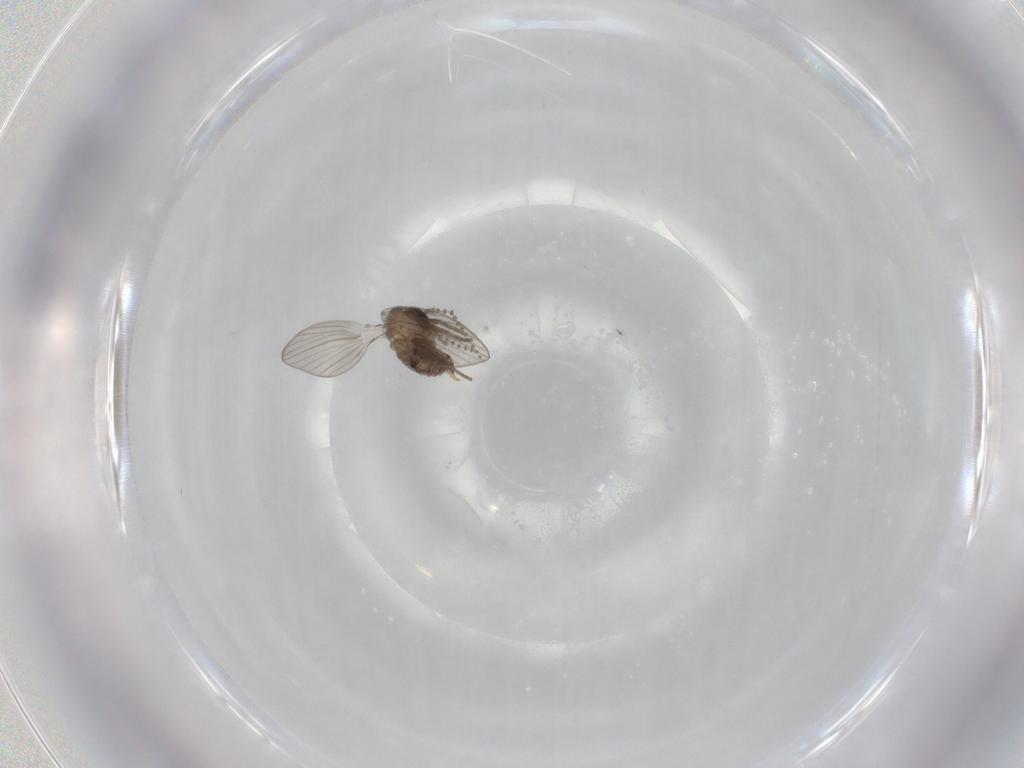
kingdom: Animalia
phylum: Arthropoda
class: Insecta
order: Diptera
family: Psychodidae
